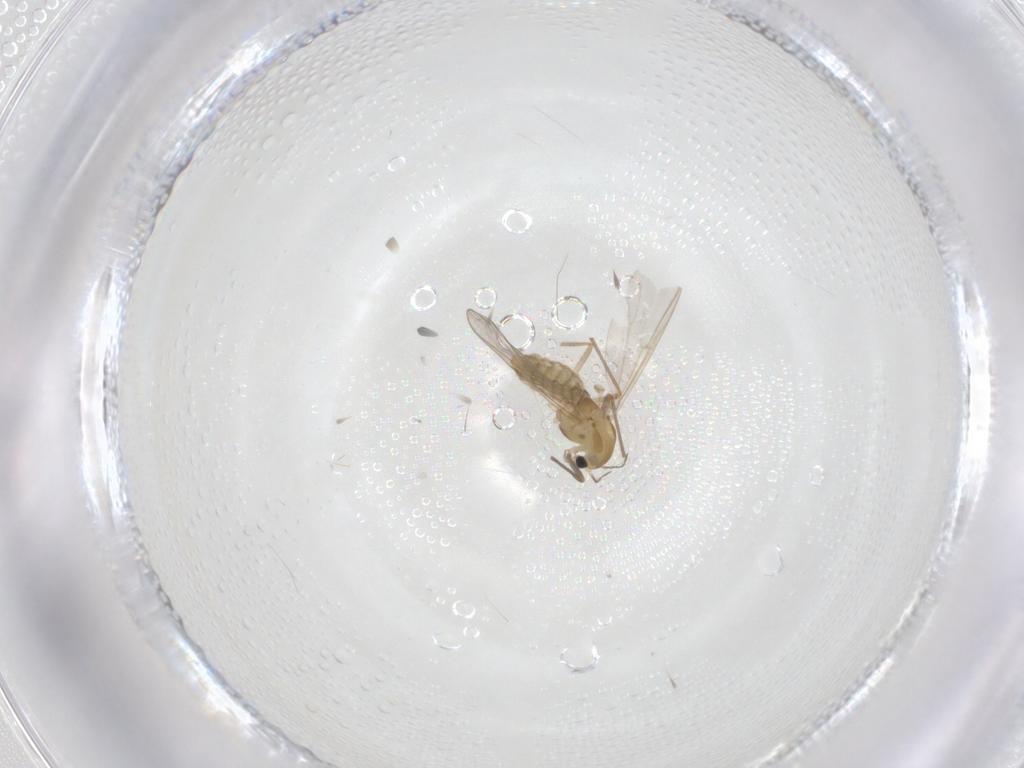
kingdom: Animalia
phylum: Arthropoda
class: Insecta
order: Diptera
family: Chironomidae
